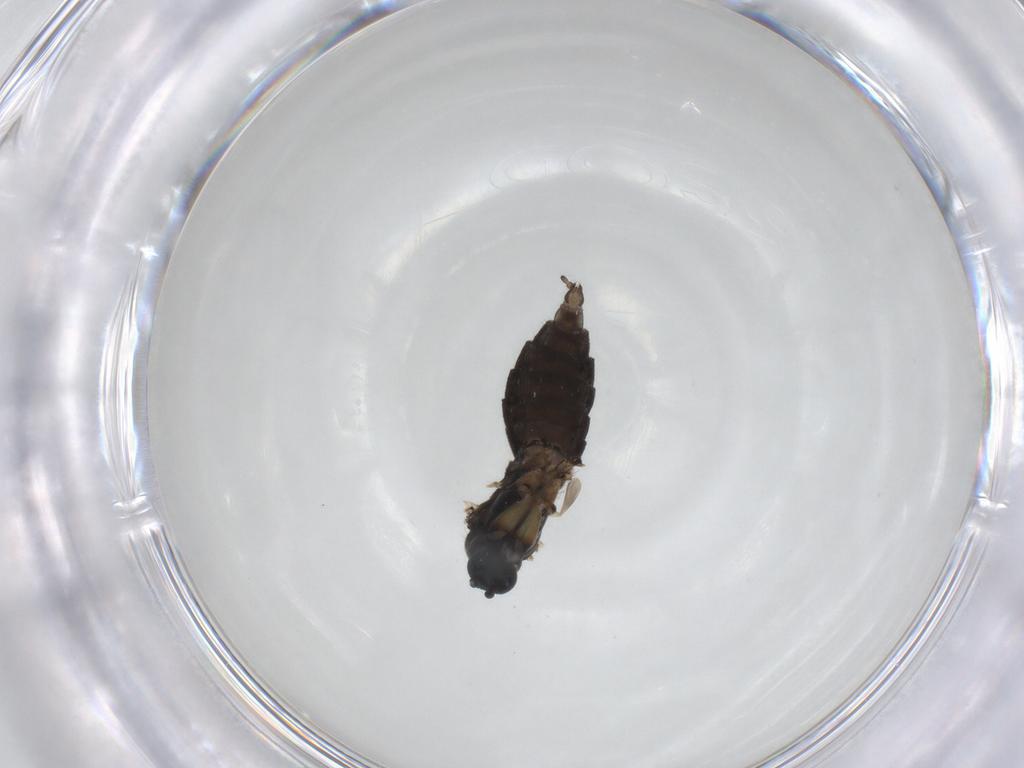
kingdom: Animalia
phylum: Arthropoda
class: Insecta
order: Diptera
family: Sciaridae
